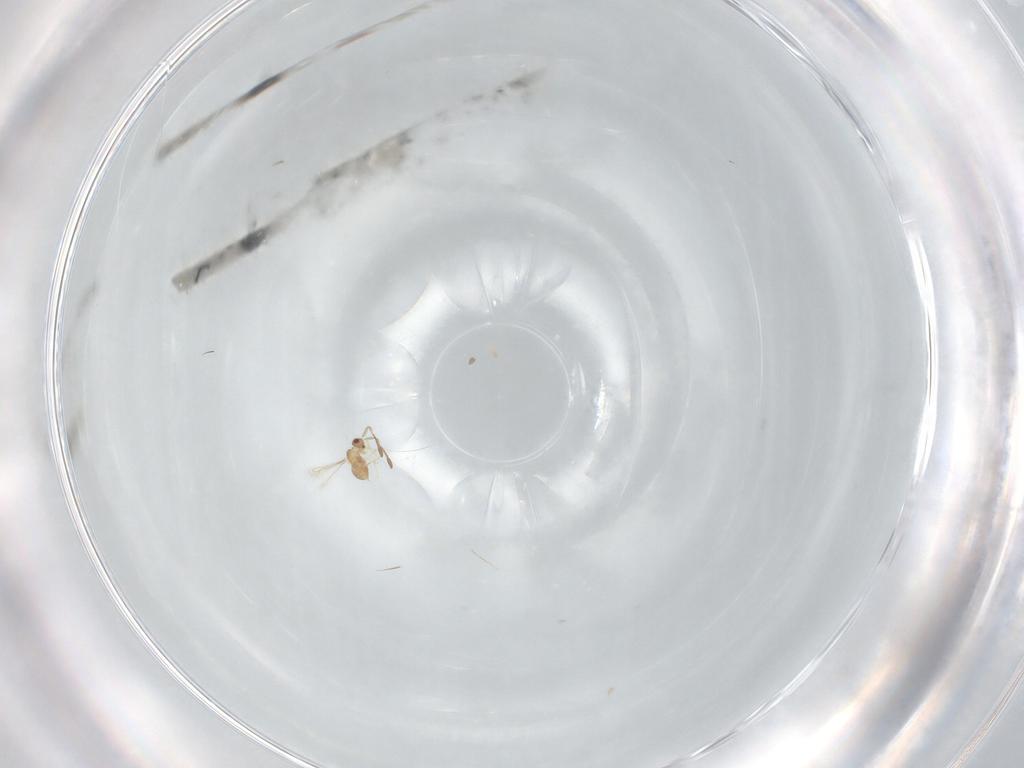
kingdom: Animalia
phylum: Arthropoda
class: Insecta
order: Hymenoptera
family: Mymaridae
